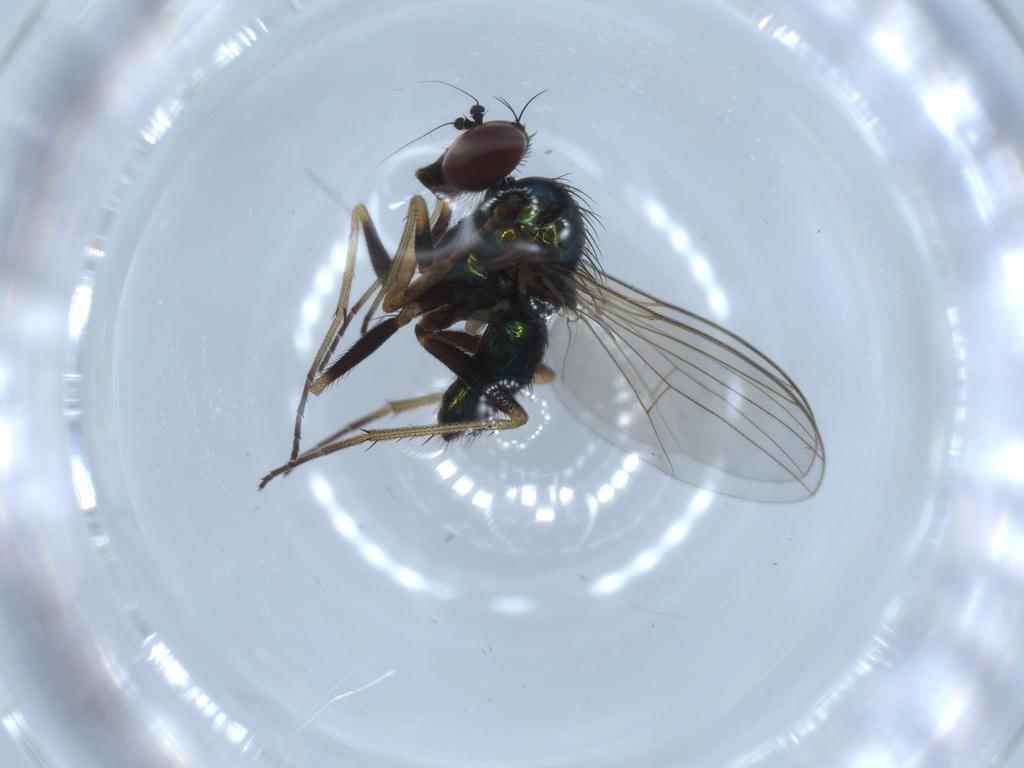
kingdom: Animalia
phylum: Arthropoda
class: Insecta
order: Diptera
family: Dolichopodidae
